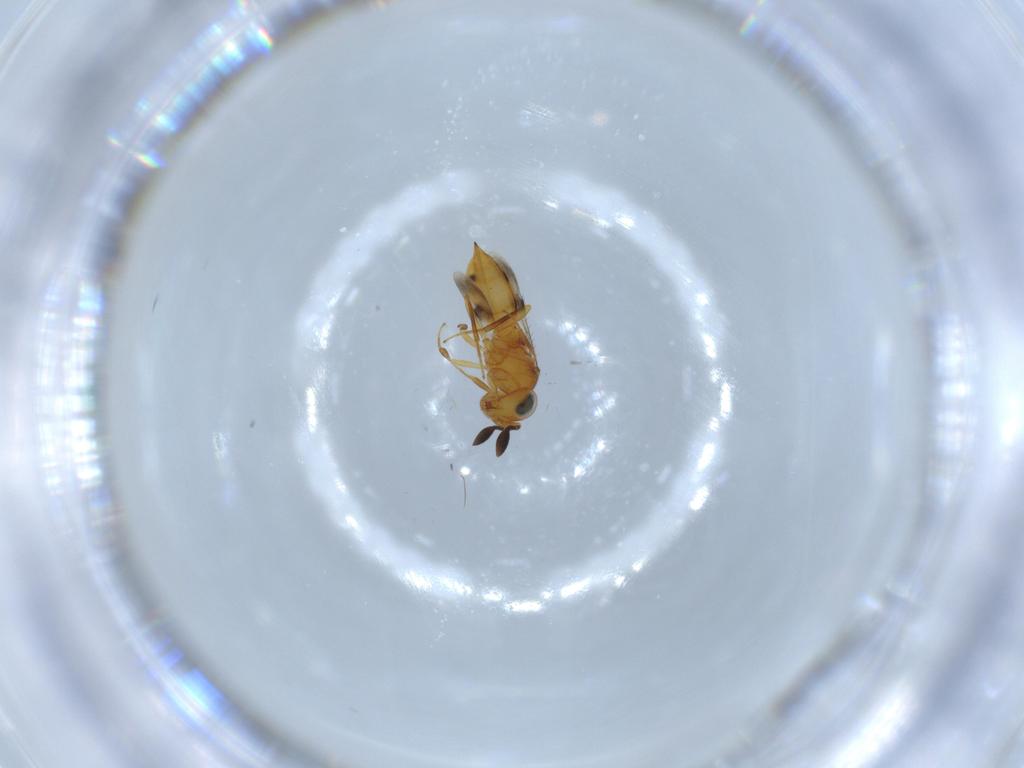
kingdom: Animalia
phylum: Arthropoda
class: Insecta
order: Hymenoptera
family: Scelionidae
